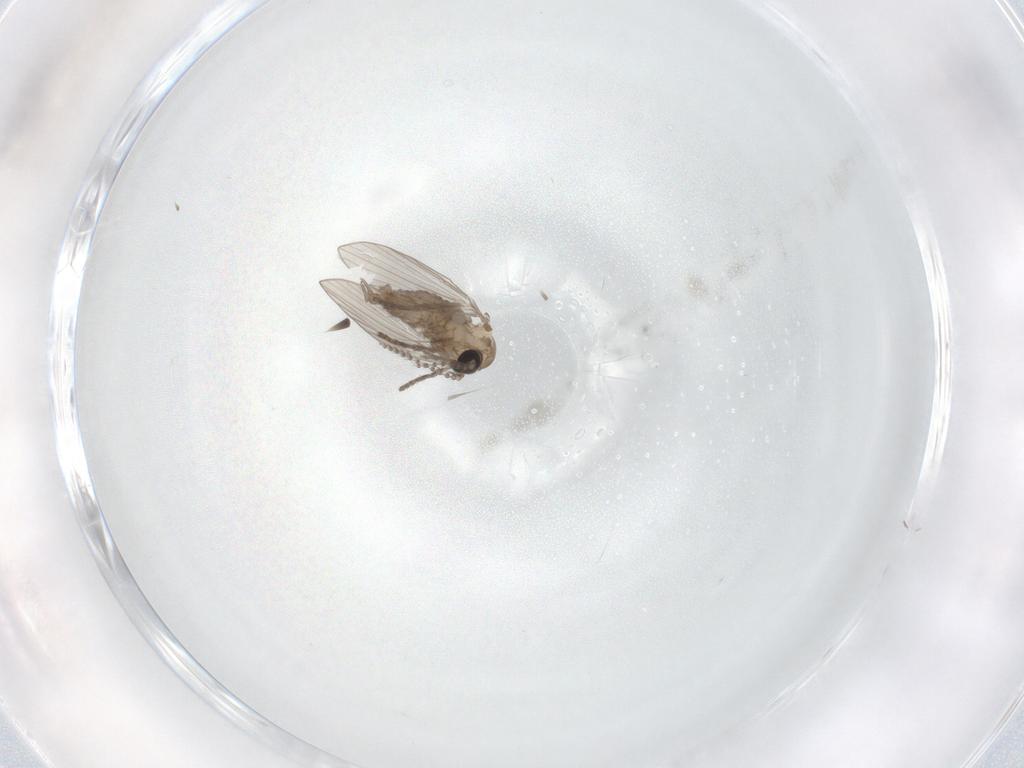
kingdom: Animalia
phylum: Arthropoda
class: Insecta
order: Diptera
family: Psychodidae
